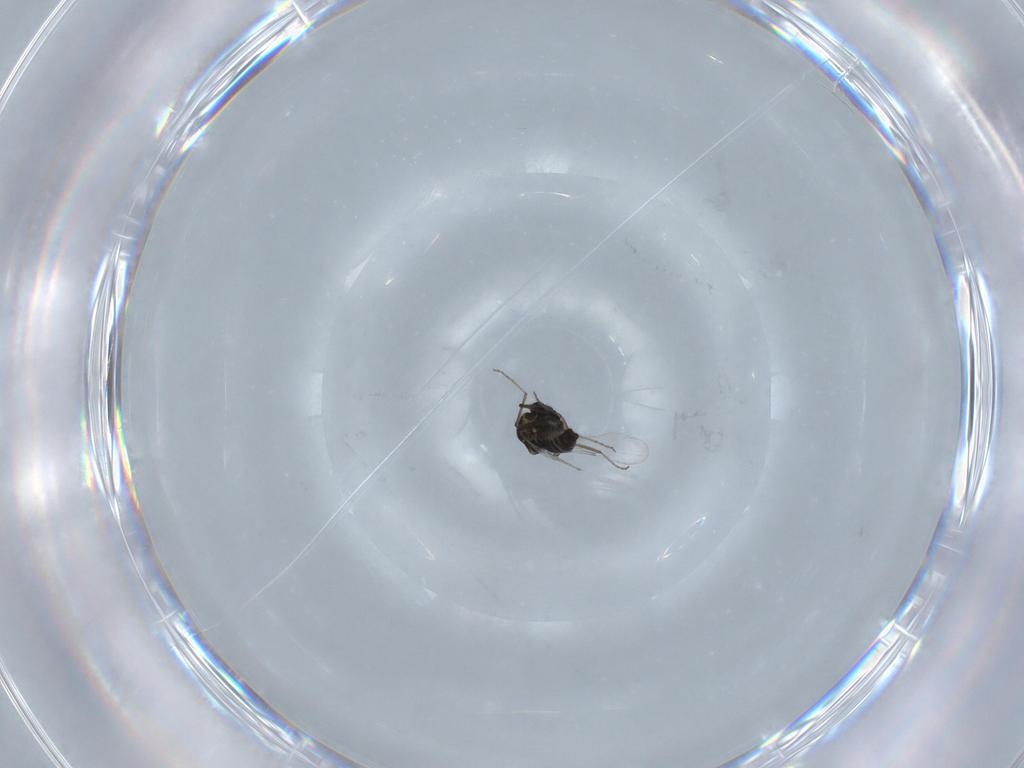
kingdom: Animalia
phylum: Arthropoda
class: Insecta
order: Diptera
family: Ceratopogonidae
